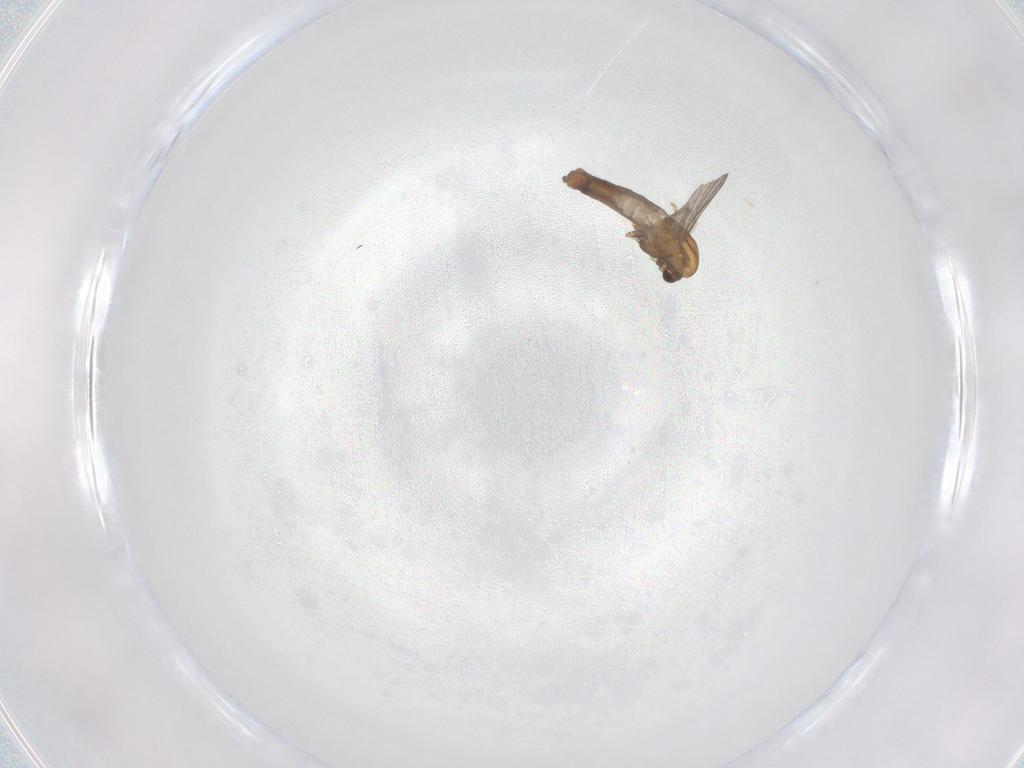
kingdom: Animalia
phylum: Arthropoda
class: Insecta
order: Diptera
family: Chironomidae
